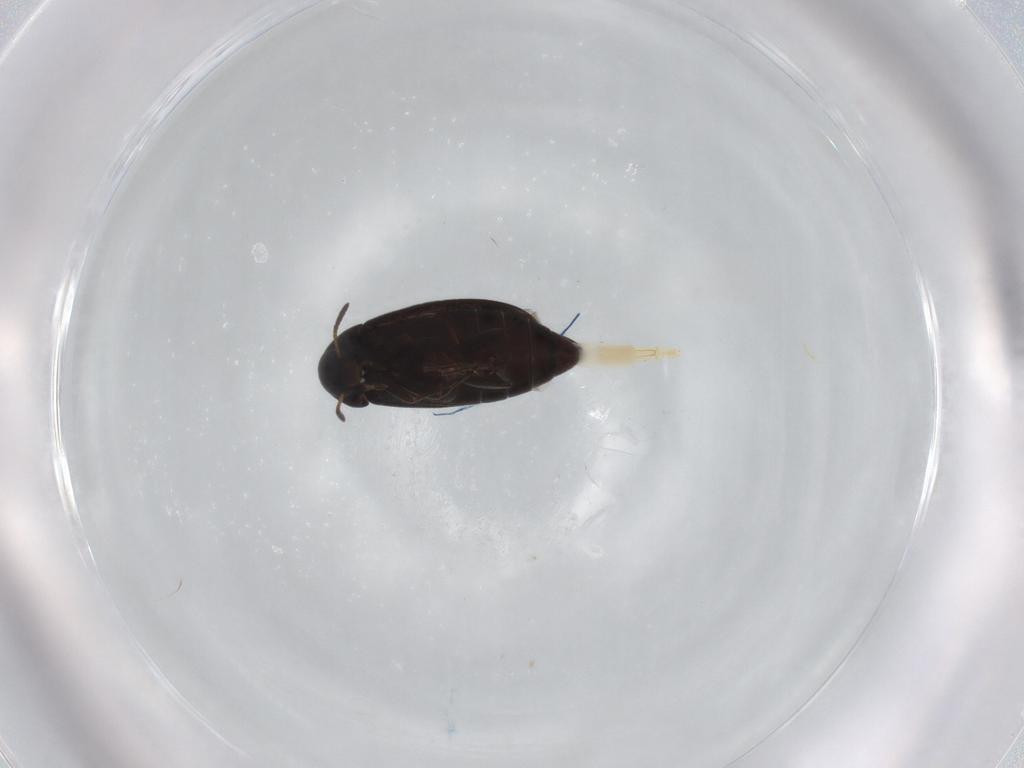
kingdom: Animalia
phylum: Arthropoda
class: Insecta
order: Coleoptera
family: Scraptiidae
